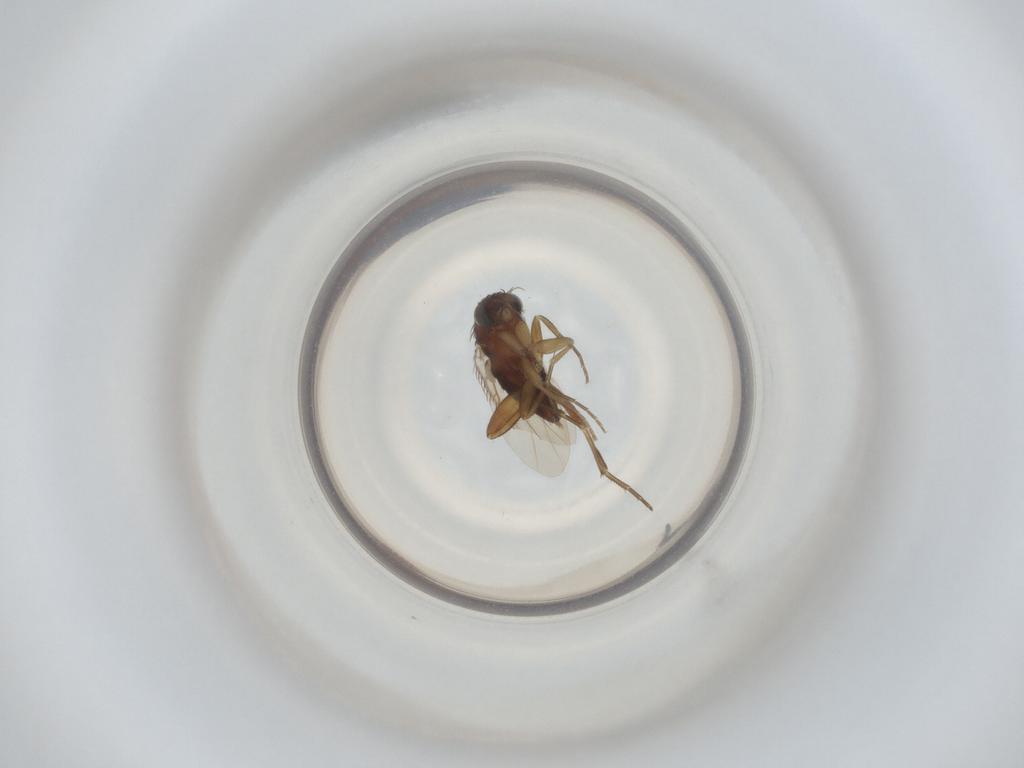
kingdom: Animalia
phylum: Arthropoda
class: Insecta
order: Diptera
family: Phoridae
